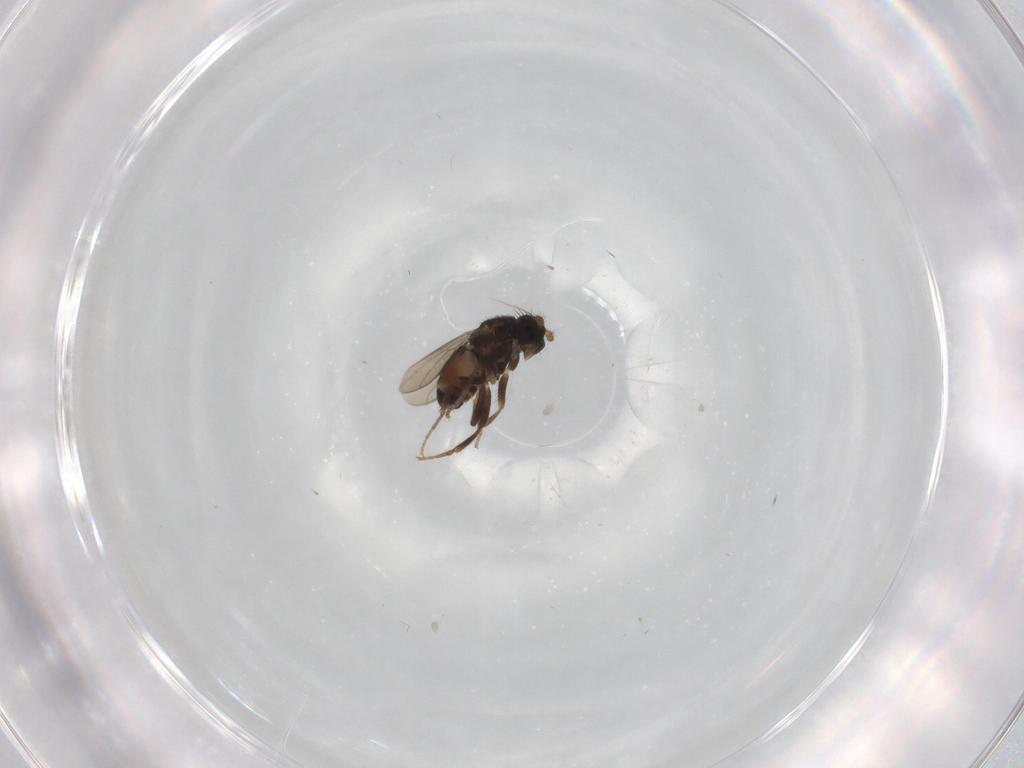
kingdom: Animalia
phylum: Arthropoda
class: Insecta
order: Diptera
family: Sphaeroceridae
